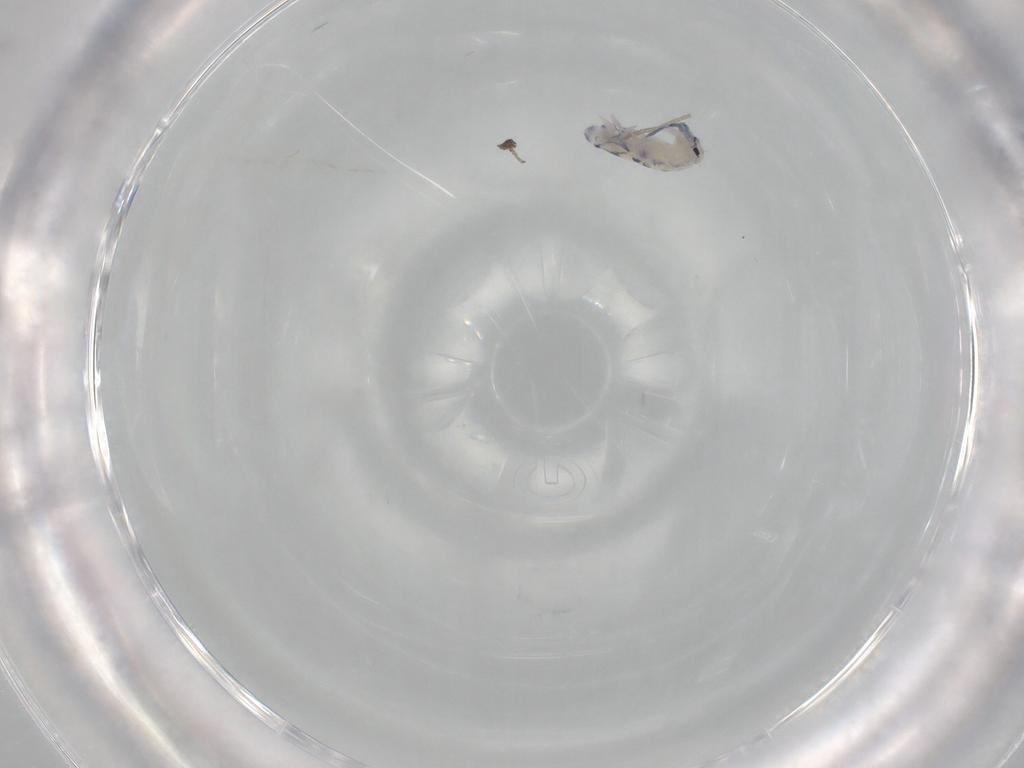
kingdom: Animalia
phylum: Arthropoda
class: Collembola
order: Entomobryomorpha
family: Entomobryidae
